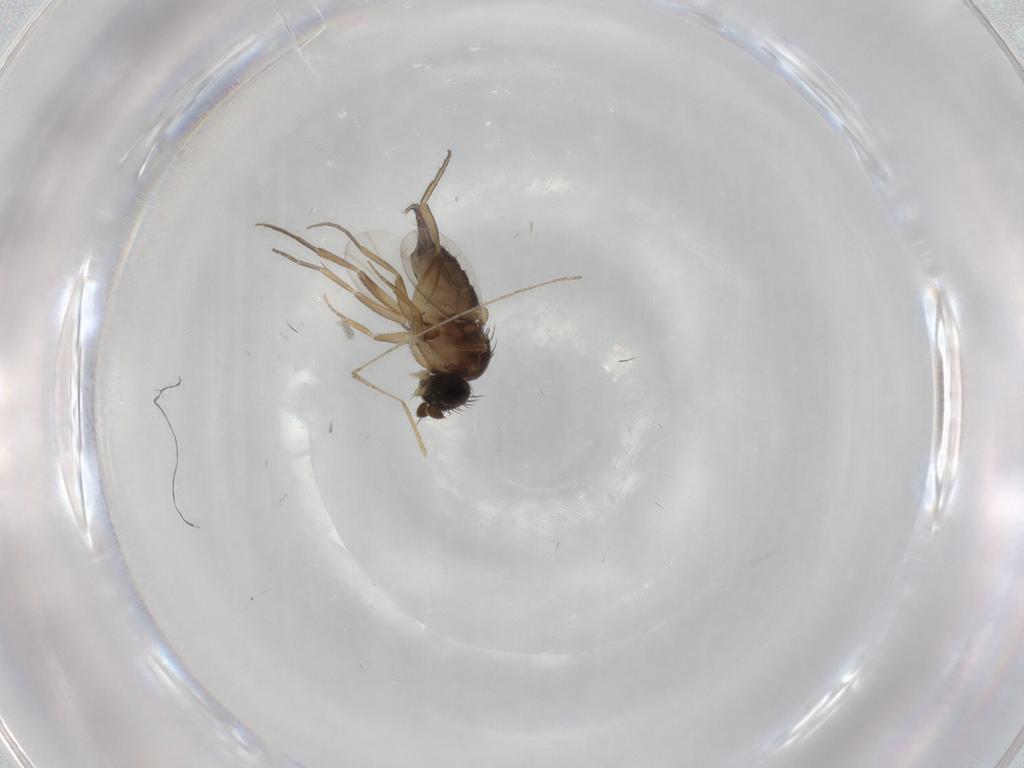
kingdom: Animalia
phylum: Arthropoda
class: Insecta
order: Diptera
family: Phoridae
